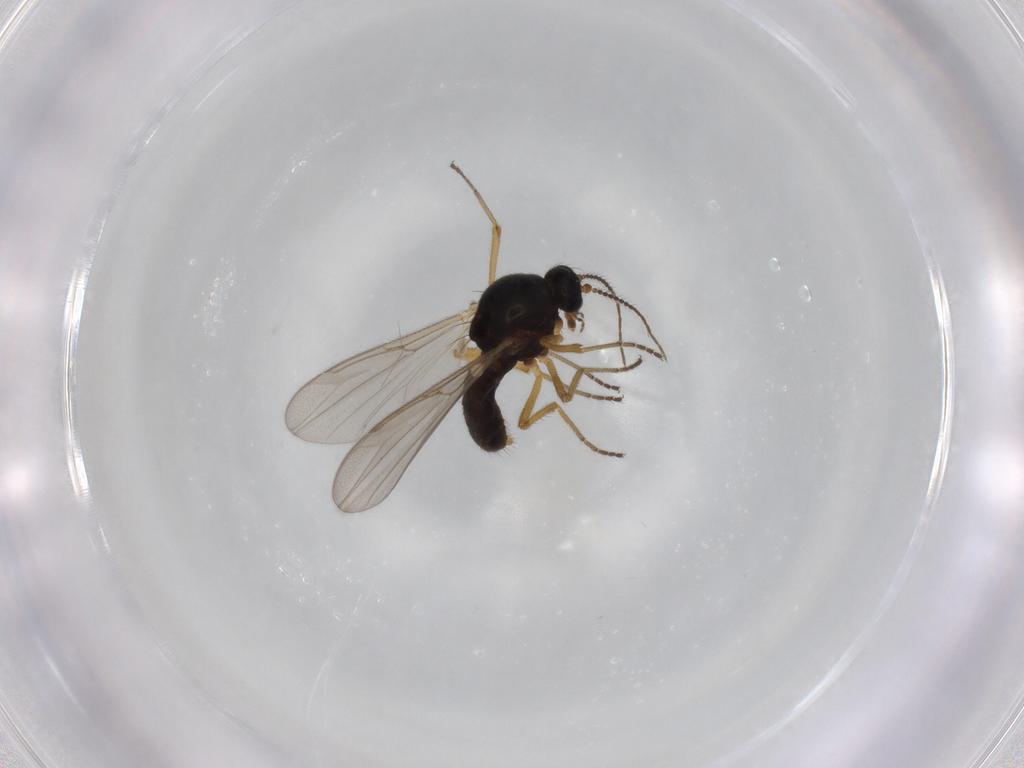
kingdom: Animalia
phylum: Arthropoda
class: Insecta
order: Diptera
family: Ceratopogonidae
